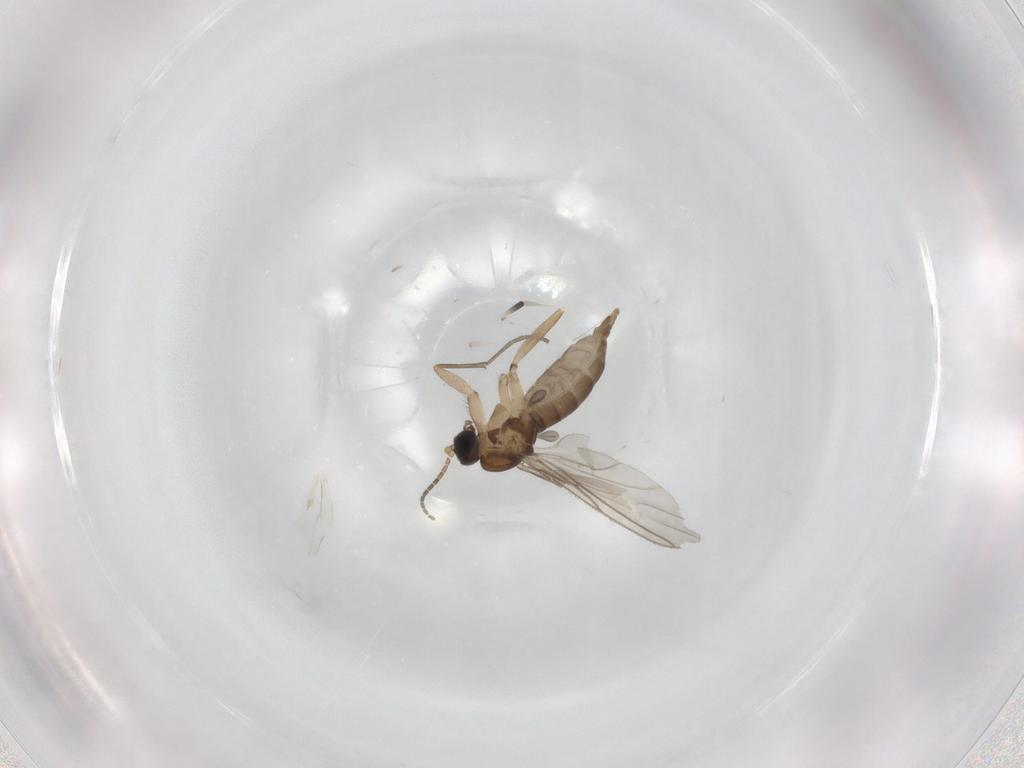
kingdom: Animalia
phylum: Arthropoda
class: Insecta
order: Diptera
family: Sciaridae
